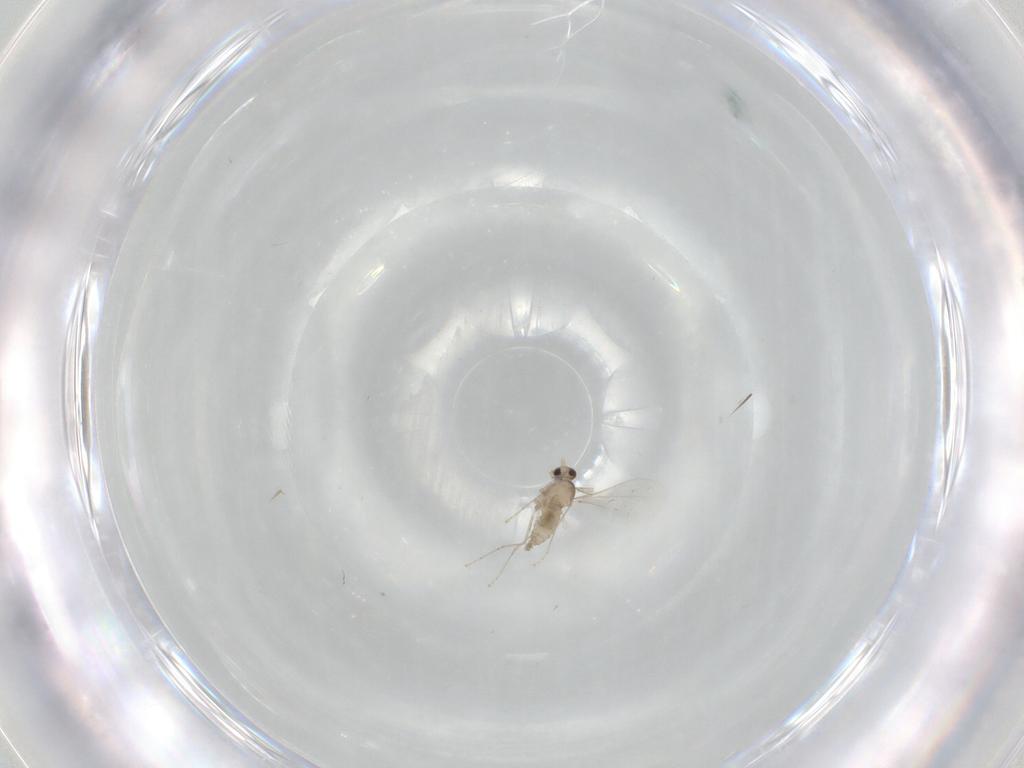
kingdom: Animalia
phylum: Arthropoda
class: Insecta
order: Diptera
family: Cecidomyiidae
